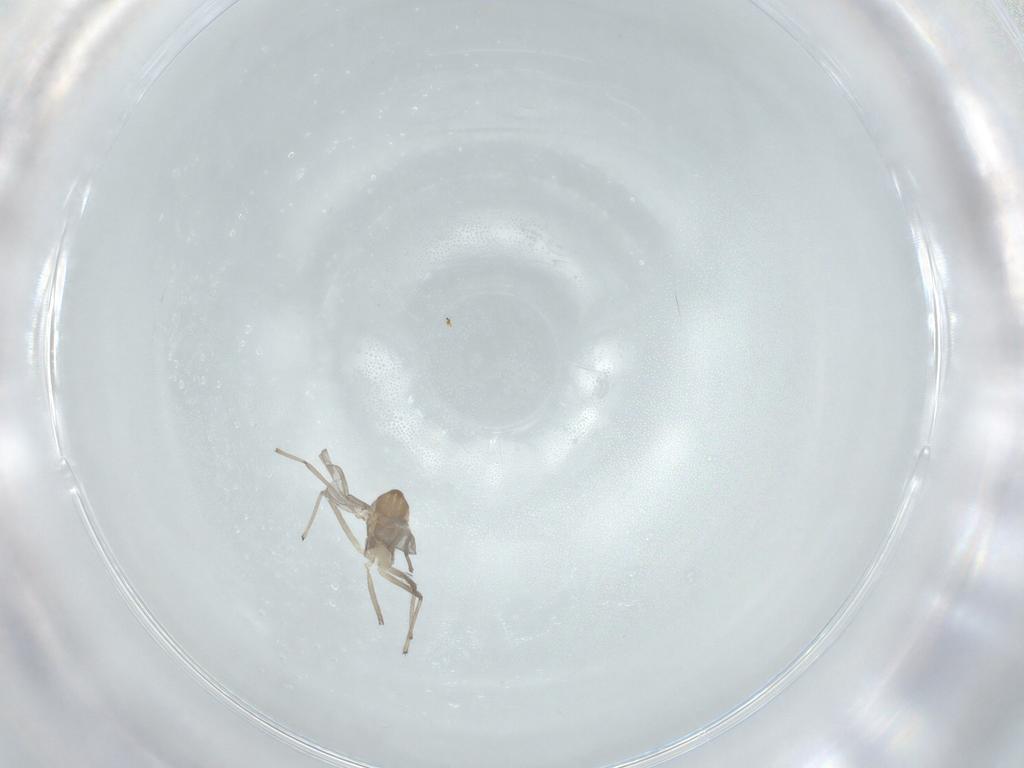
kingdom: Animalia
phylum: Arthropoda
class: Insecta
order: Diptera
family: Chironomidae
